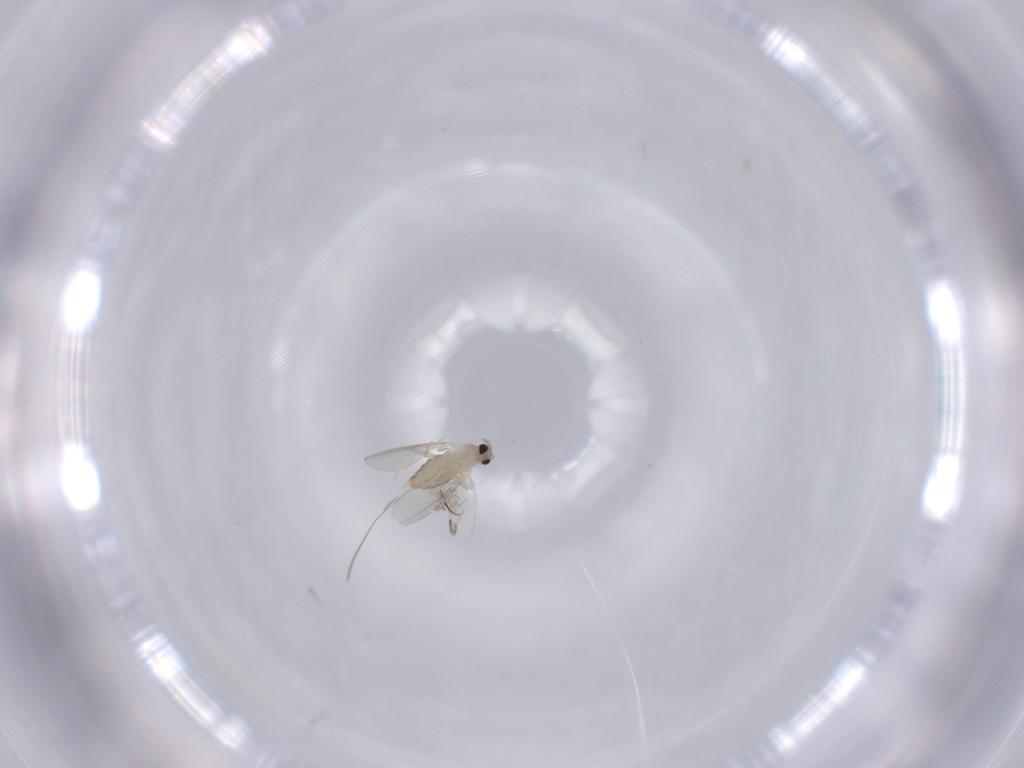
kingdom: Animalia
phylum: Arthropoda
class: Insecta
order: Diptera
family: Cecidomyiidae
